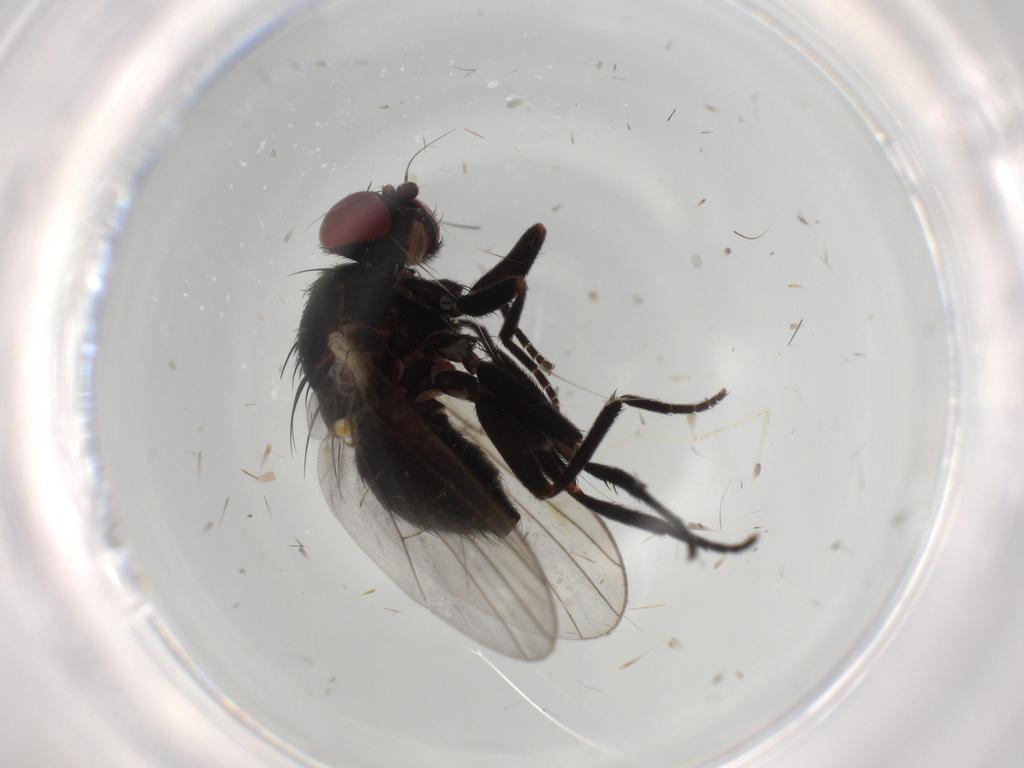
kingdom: Animalia
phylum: Arthropoda
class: Insecta
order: Diptera
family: Agromyzidae
